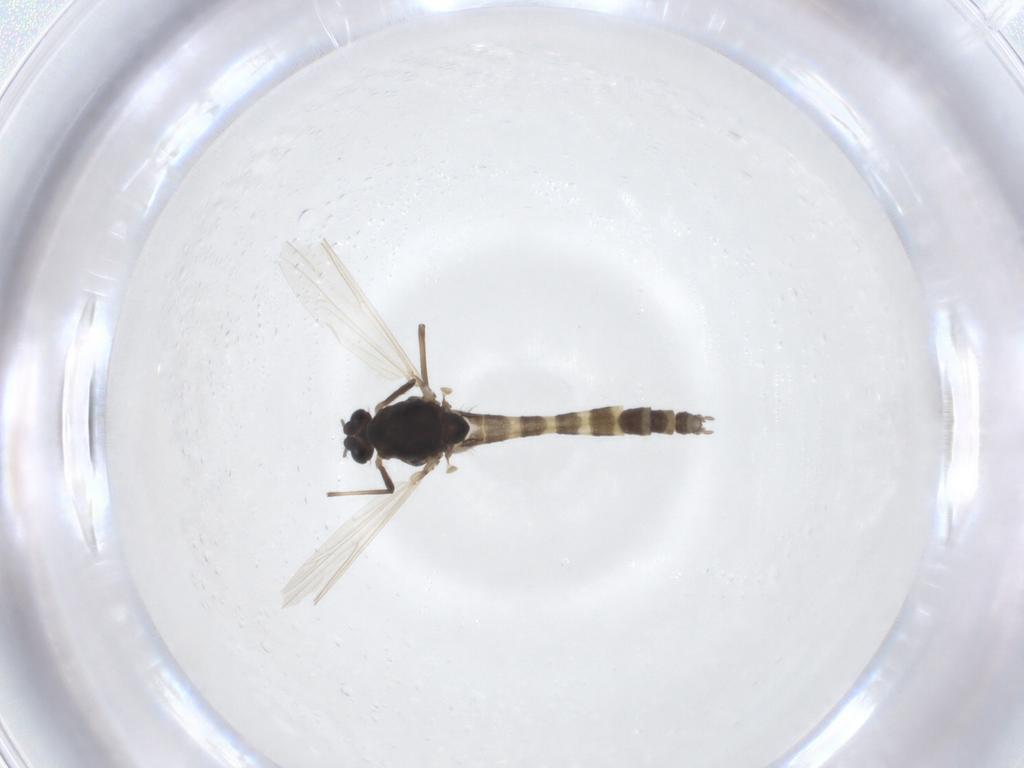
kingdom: Animalia
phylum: Arthropoda
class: Insecta
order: Diptera
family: Chironomidae
